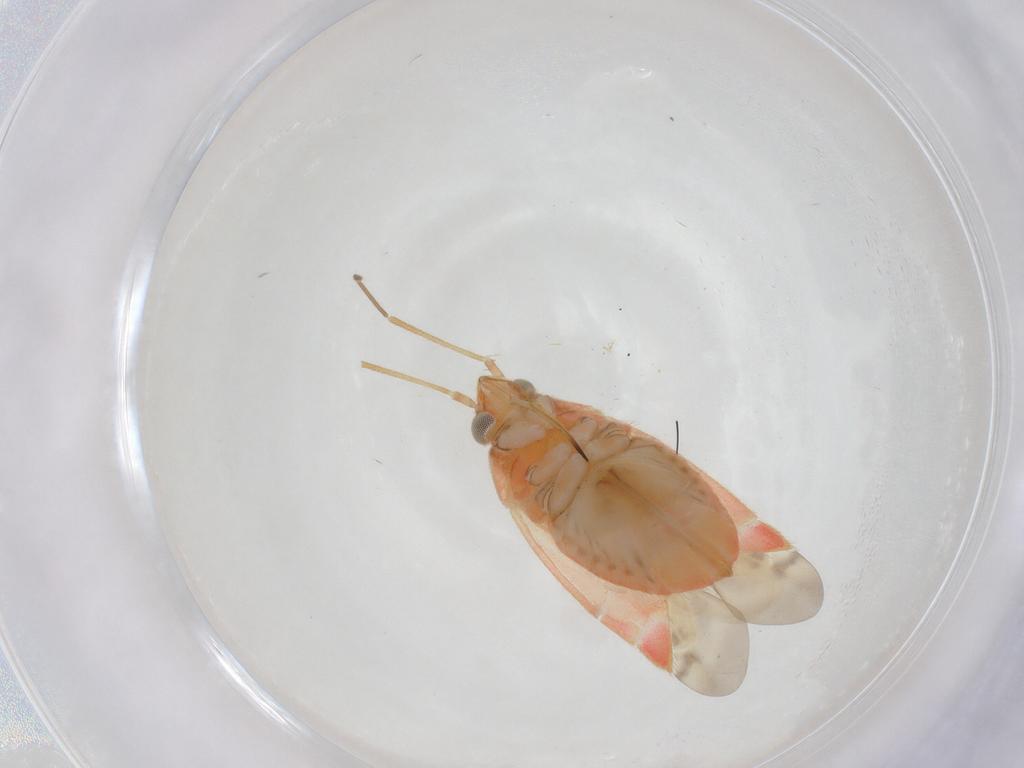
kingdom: Animalia
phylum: Arthropoda
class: Insecta
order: Hemiptera
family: Miridae
